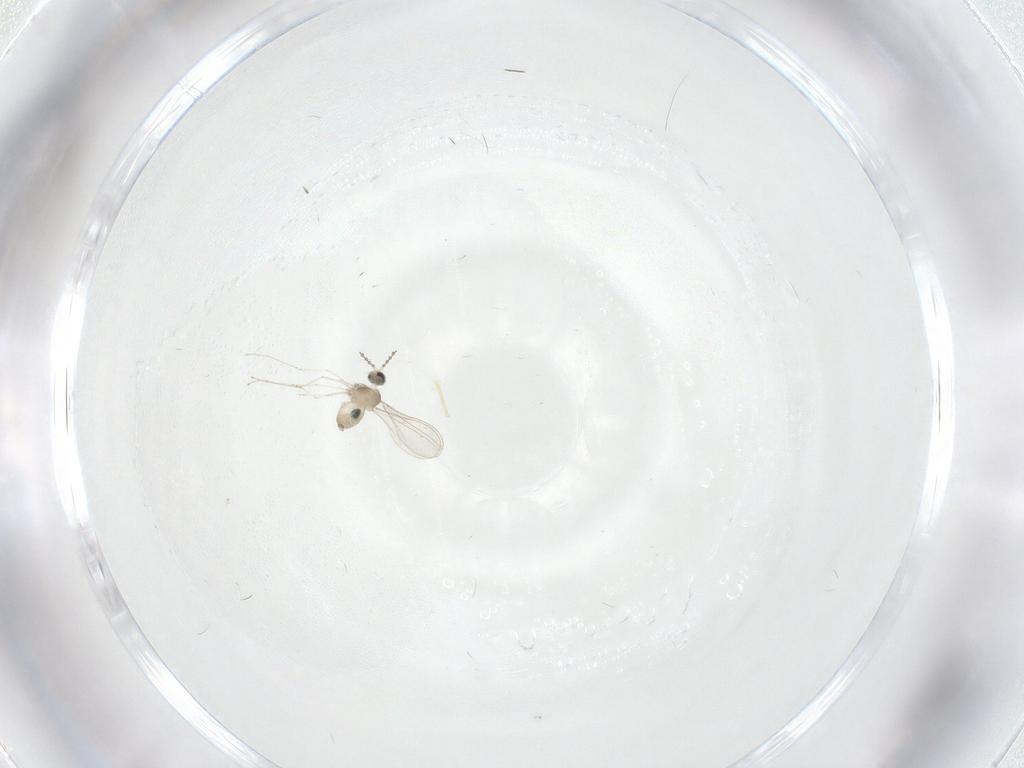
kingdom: Animalia
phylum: Arthropoda
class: Insecta
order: Diptera
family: Chironomidae
